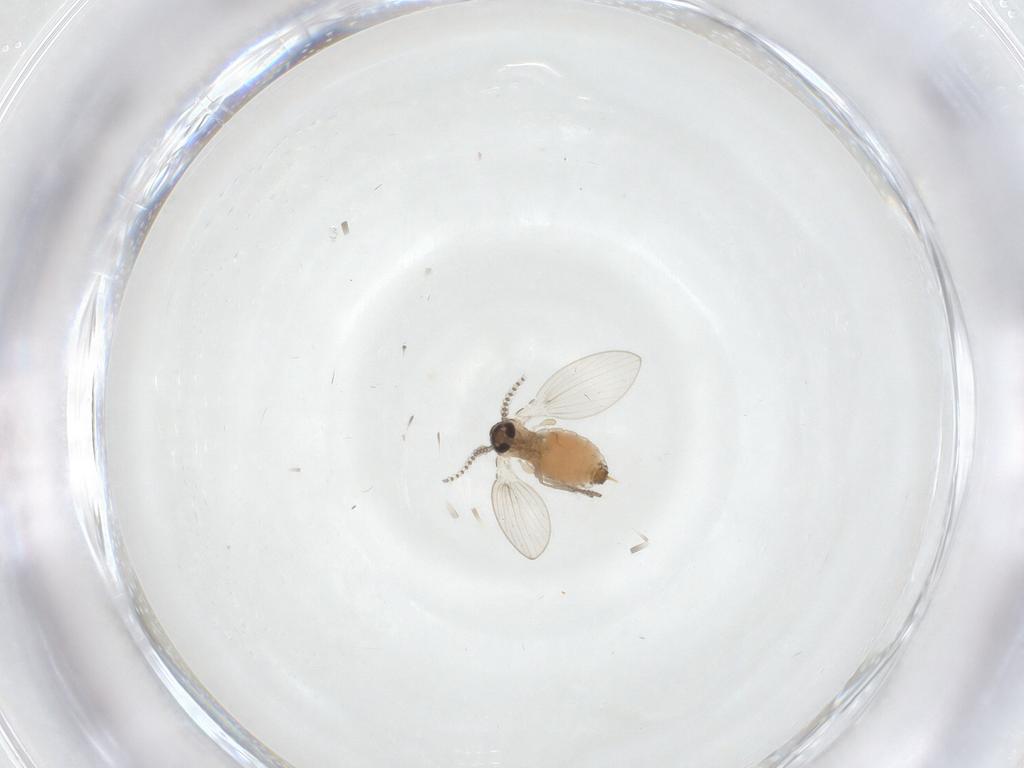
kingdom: Animalia
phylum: Arthropoda
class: Insecta
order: Diptera
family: Psychodidae
